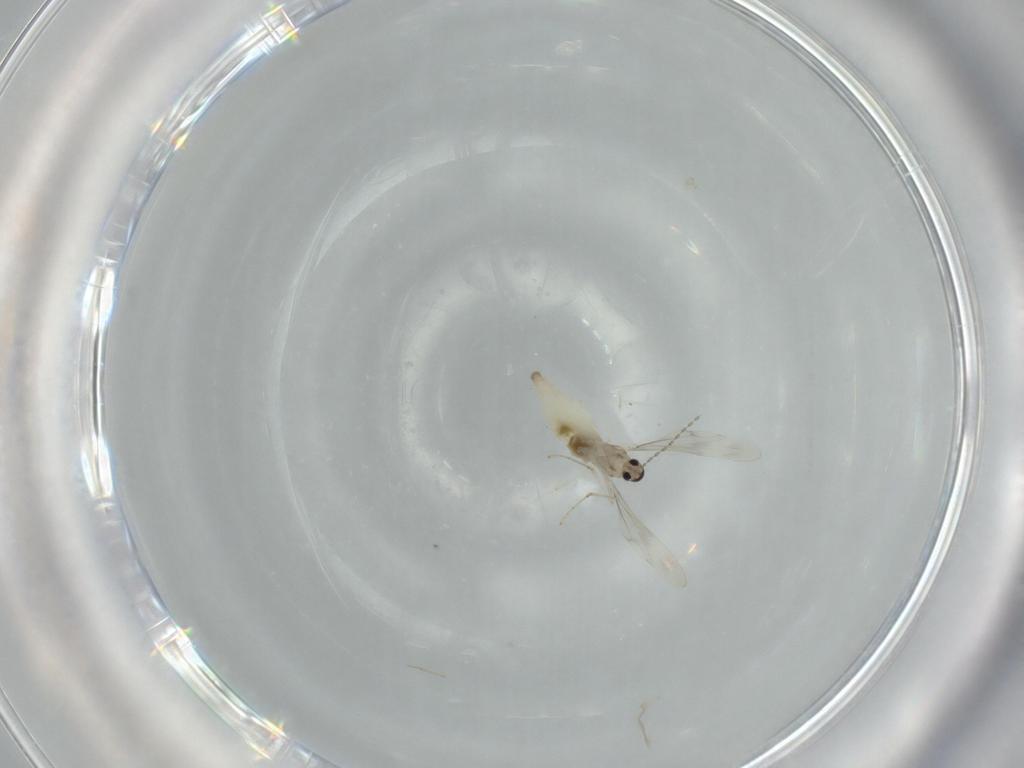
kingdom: Animalia
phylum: Arthropoda
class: Insecta
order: Diptera
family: Cecidomyiidae
